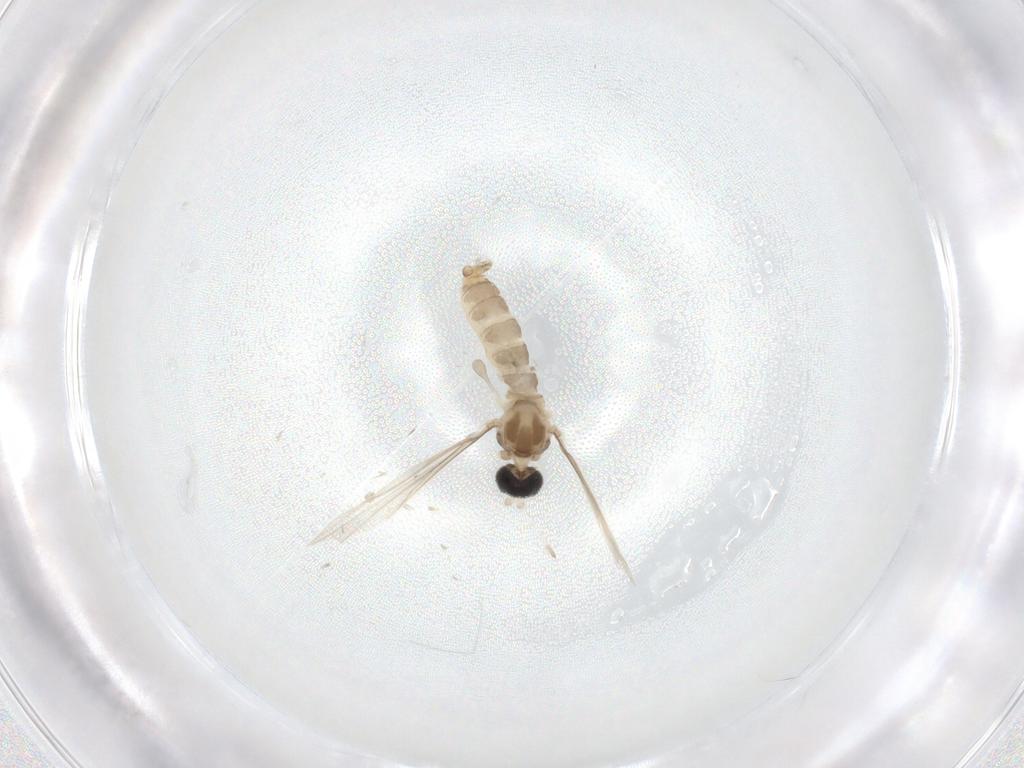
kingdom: Animalia
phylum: Arthropoda
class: Insecta
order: Diptera
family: Cecidomyiidae
